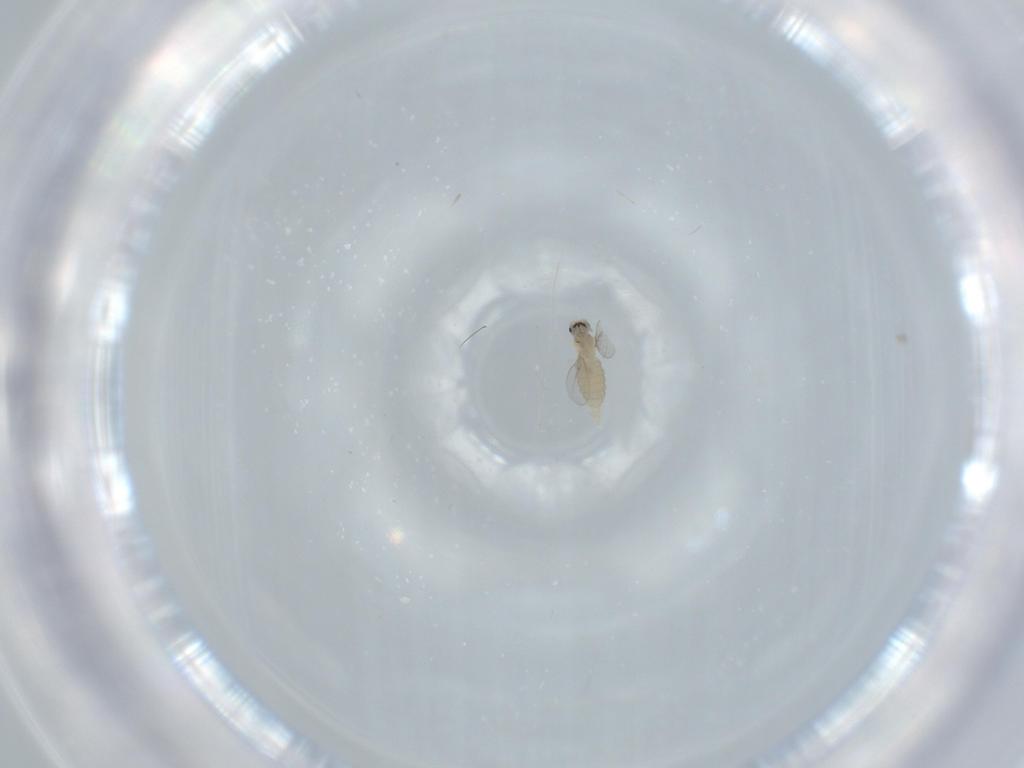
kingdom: Animalia
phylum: Arthropoda
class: Insecta
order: Diptera
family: Cecidomyiidae
